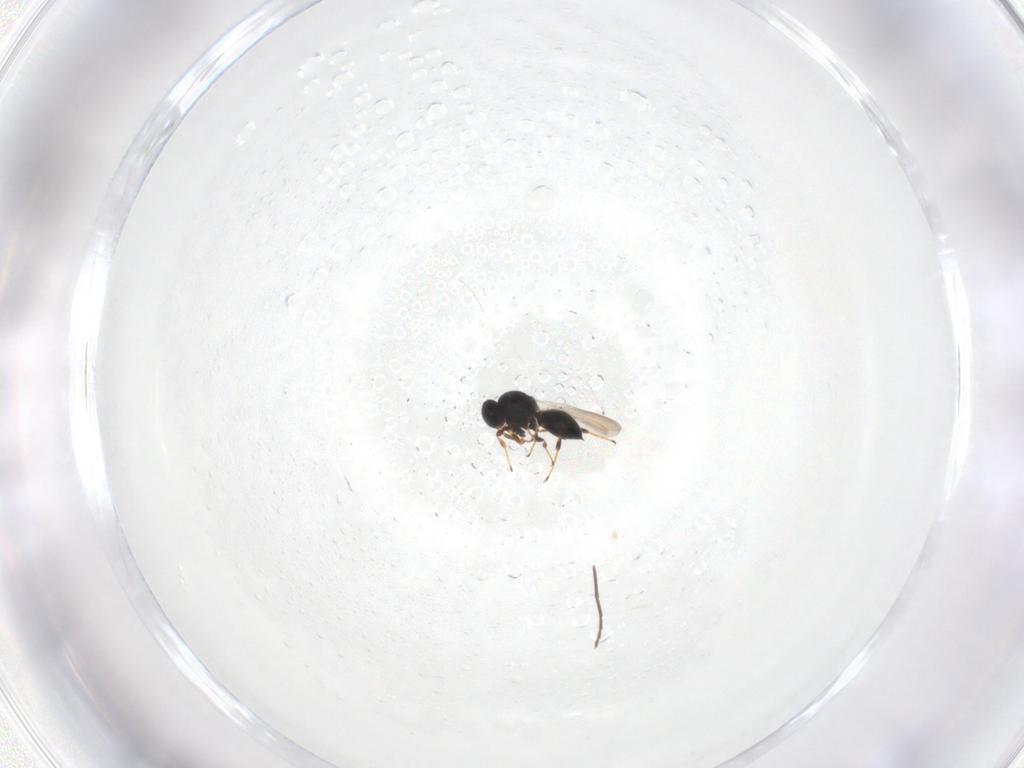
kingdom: Animalia
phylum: Arthropoda
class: Insecta
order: Hymenoptera
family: Platygastridae
